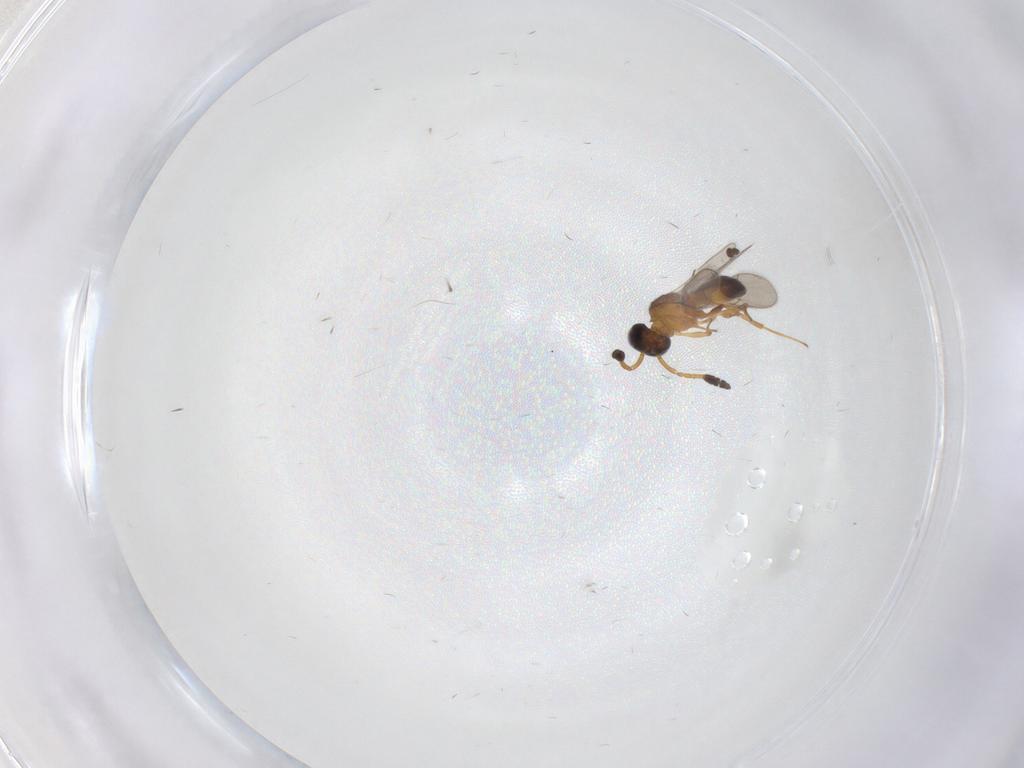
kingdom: Animalia
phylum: Arthropoda
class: Insecta
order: Hymenoptera
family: Scelionidae
